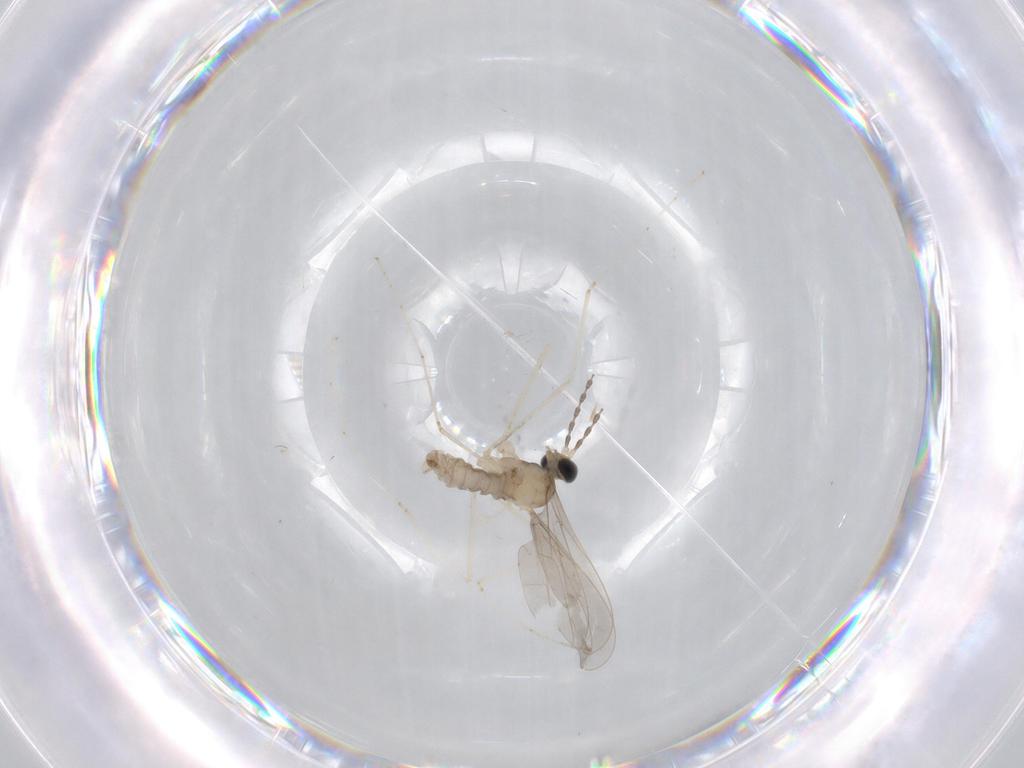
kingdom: Animalia
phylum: Arthropoda
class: Insecta
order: Diptera
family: Cecidomyiidae
